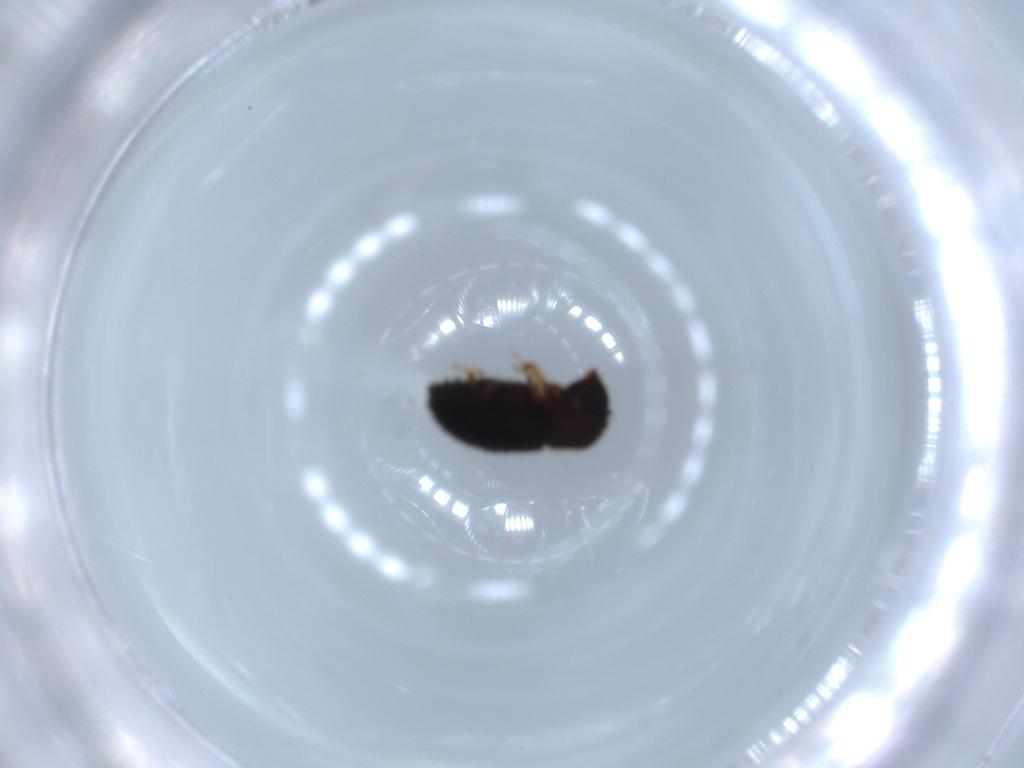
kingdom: Animalia
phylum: Arthropoda
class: Insecta
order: Coleoptera
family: Curculionidae
